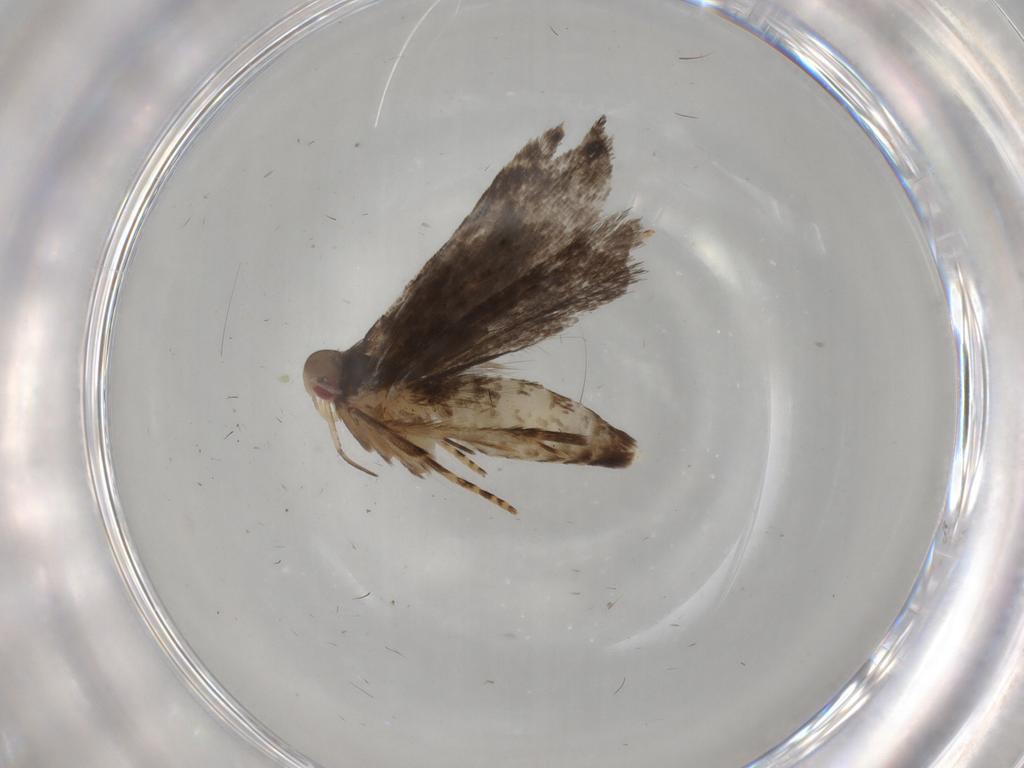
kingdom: Animalia
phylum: Arthropoda
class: Insecta
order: Lepidoptera
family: Gelechiidae
